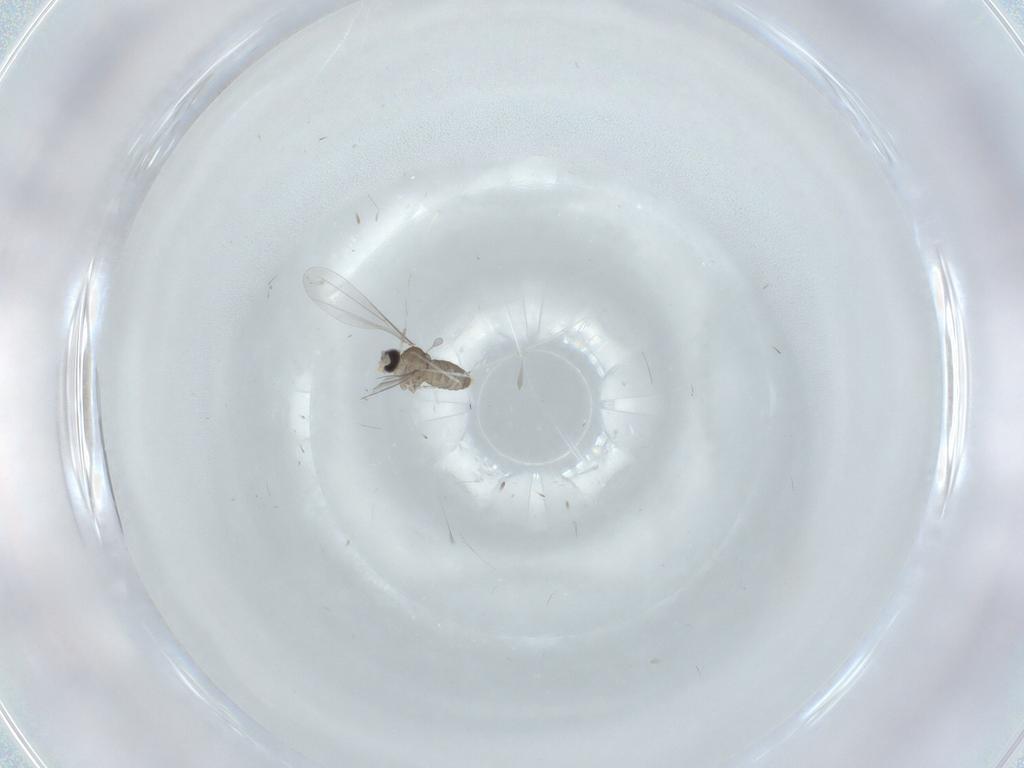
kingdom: Animalia
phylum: Arthropoda
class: Insecta
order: Diptera
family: Cecidomyiidae
